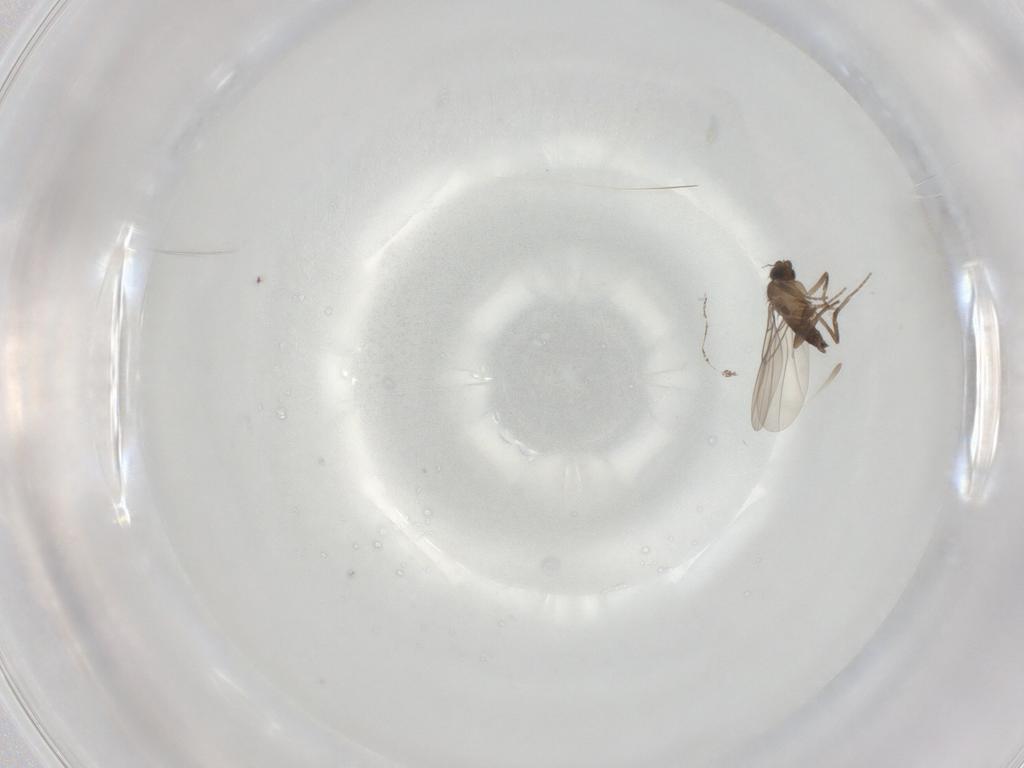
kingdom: Animalia
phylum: Arthropoda
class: Insecta
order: Diptera
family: Phoridae
